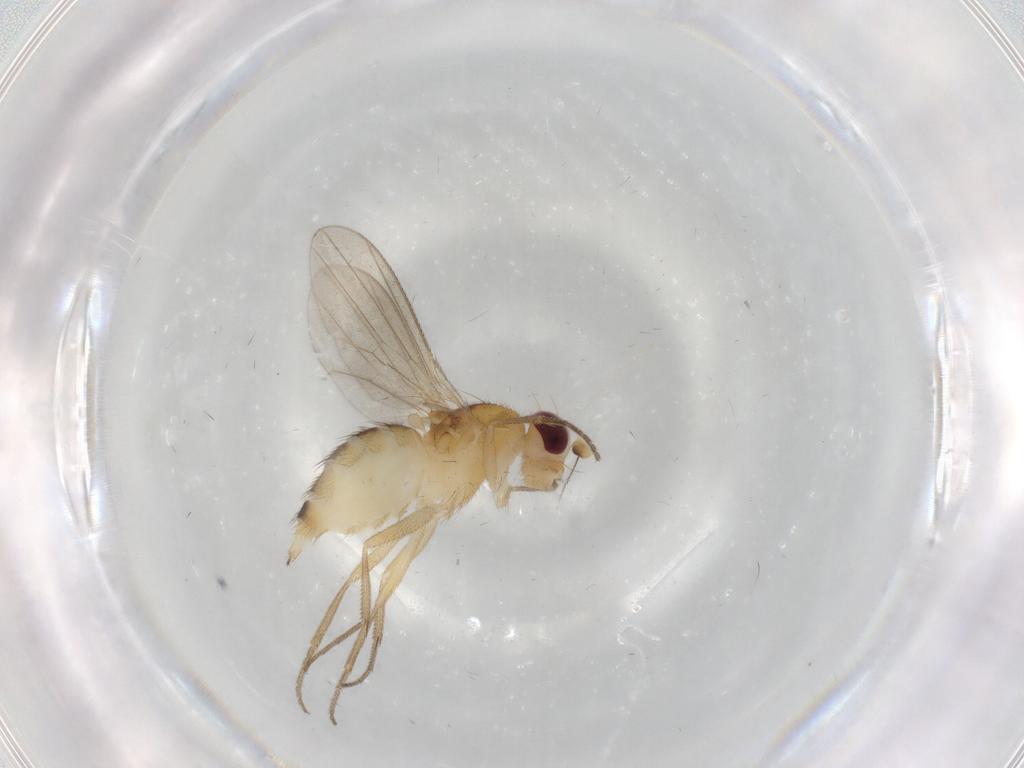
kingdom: Animalia
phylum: Arthropoda
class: Insecta
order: Diptera
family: Clusiidae
